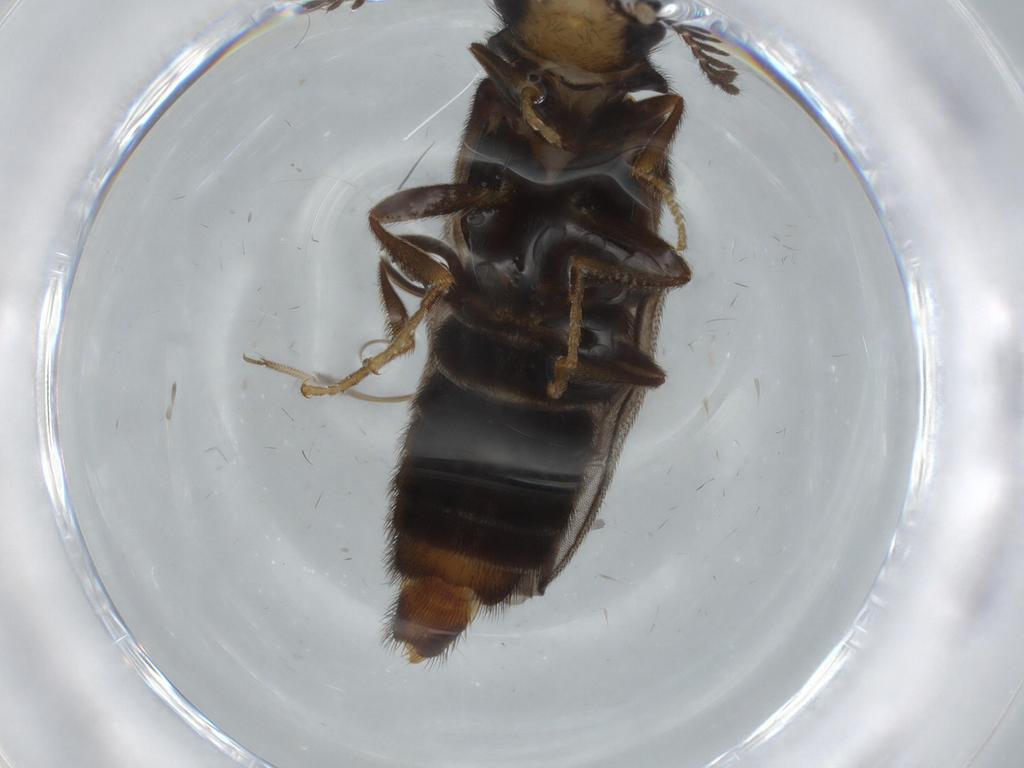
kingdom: Animalia
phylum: Arthropoda
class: Insecta
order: Coleoptera
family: Phengodidae
